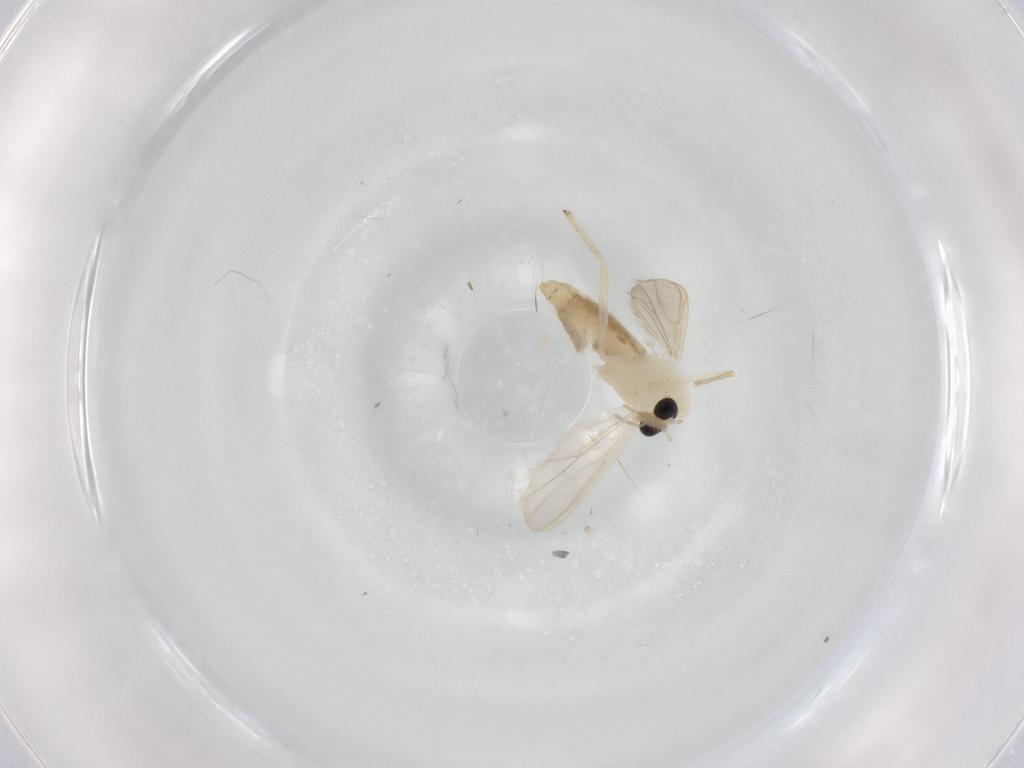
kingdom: Animalia
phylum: Arthropoda
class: Insecta
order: Diptera
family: Chironomidae
